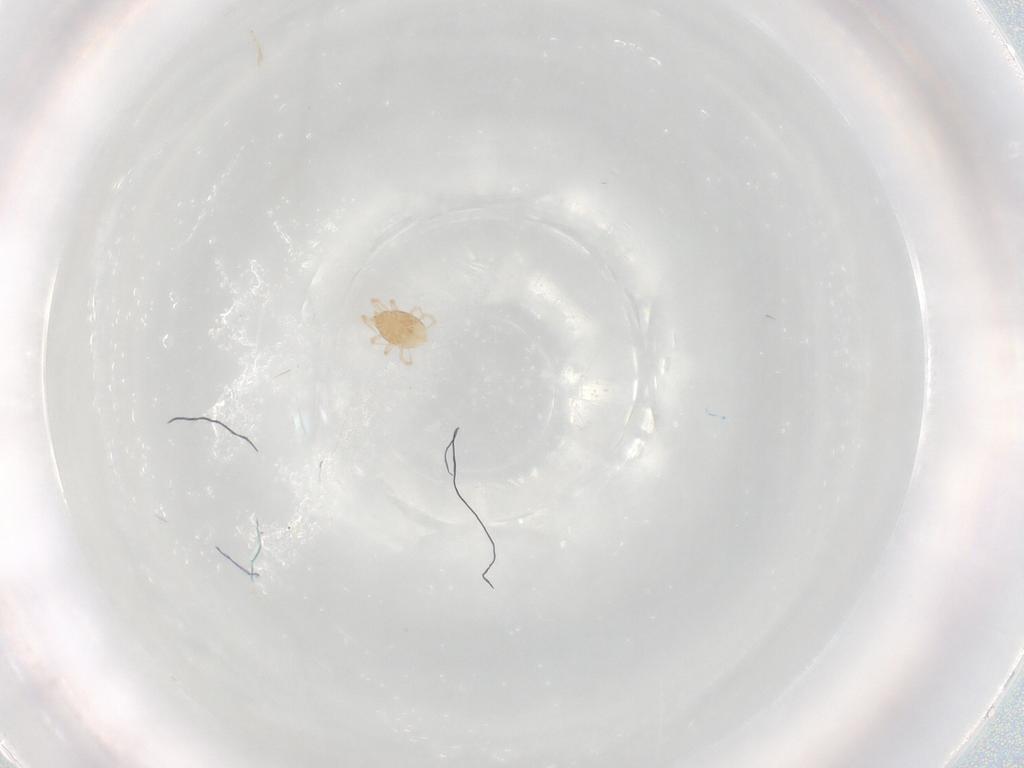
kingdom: Animalia
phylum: Arthropoda
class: Arachnida
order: Mesostigmata
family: Melicharidae
